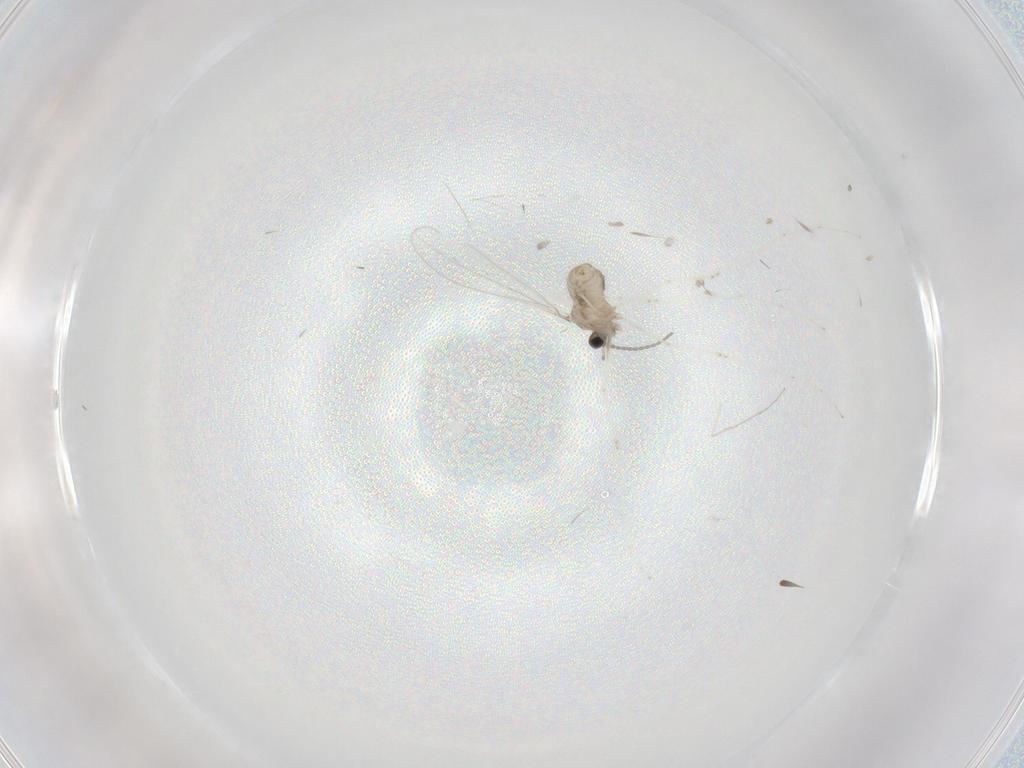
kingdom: Animalia
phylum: Arthropoda
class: Insecta
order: Diptera
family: Cecidomyiidae
